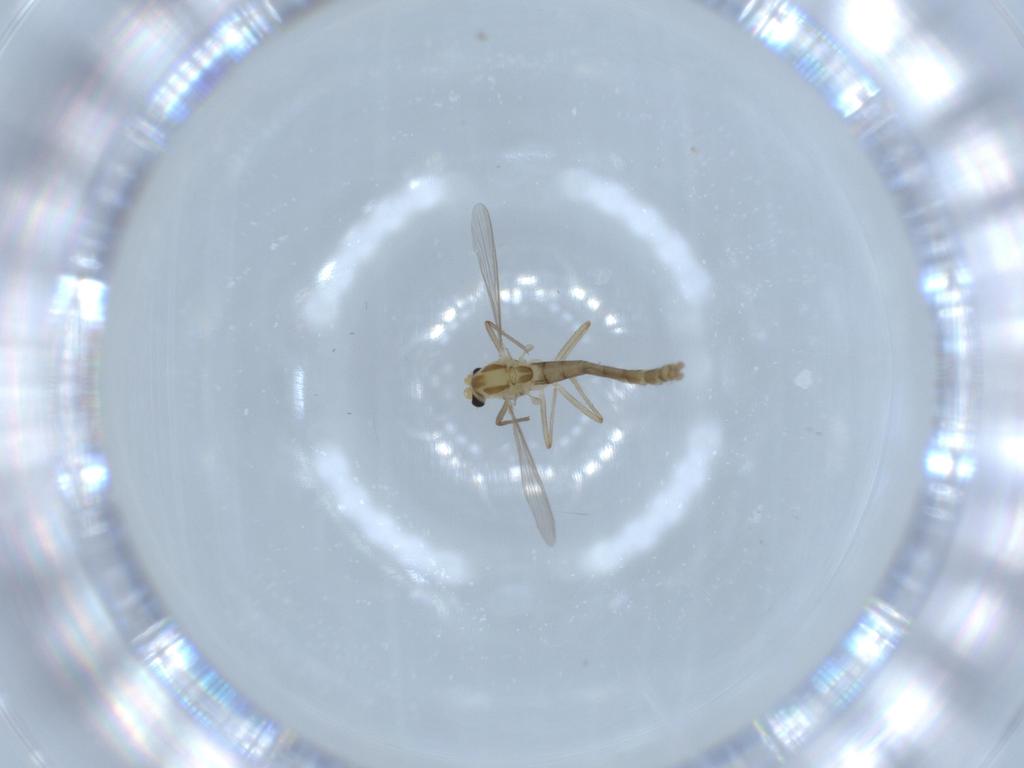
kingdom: Animalia
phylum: Arthropoda
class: Insecta
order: Diptera
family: Chironomidae
